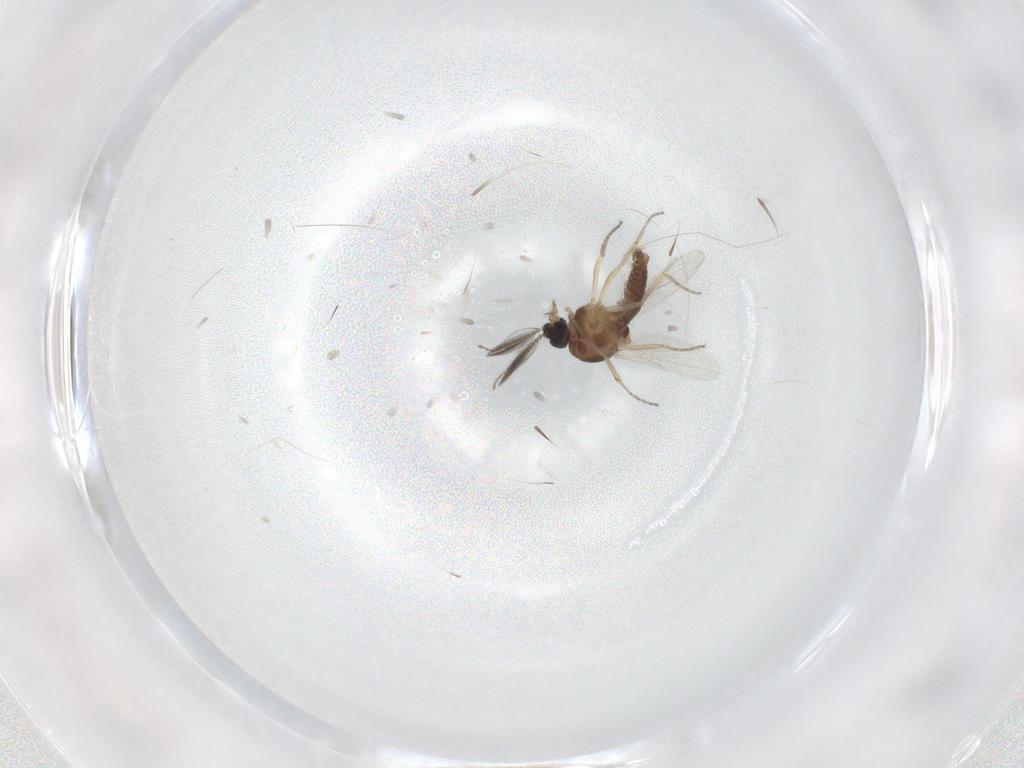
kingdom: Animalia
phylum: Arthropoda
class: Insecta
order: Diptera
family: Ceratopogonidae
